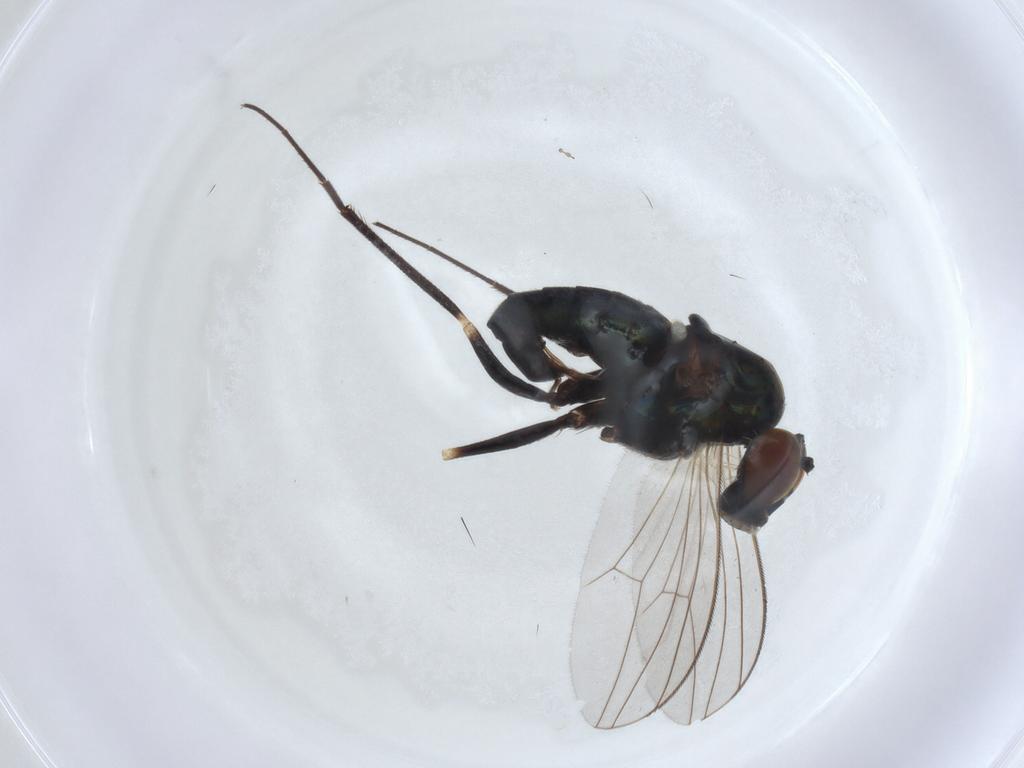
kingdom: Animalia
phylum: Arthropoda
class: Insecta
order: Diptera
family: Dolichopodidae
